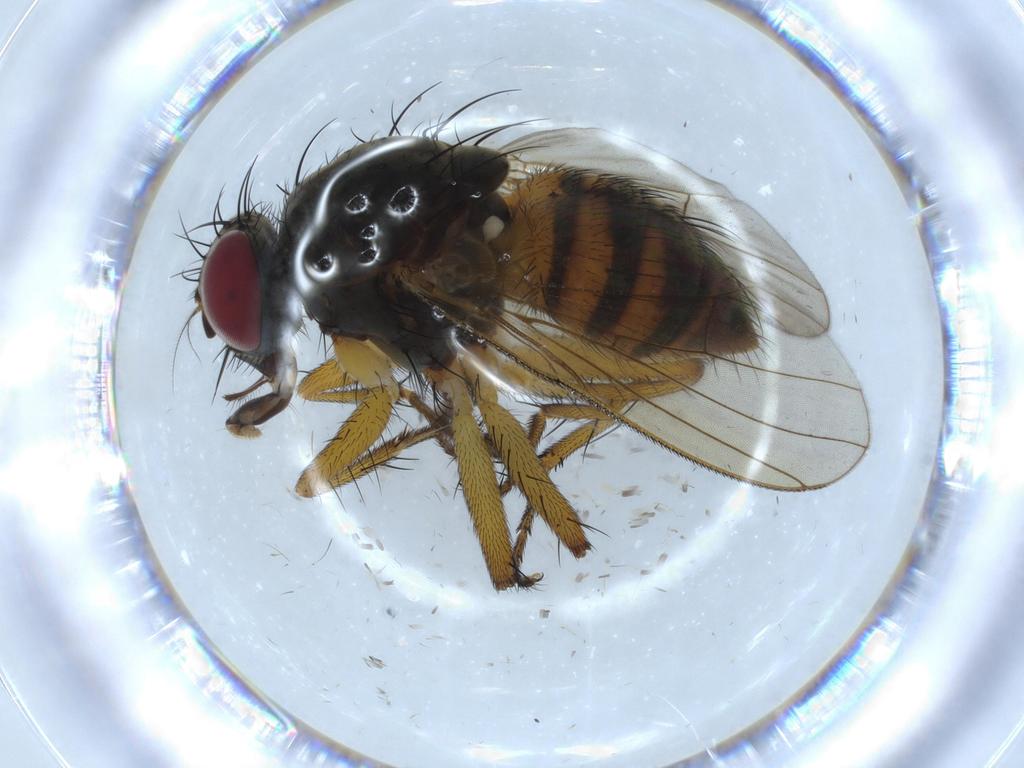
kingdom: Animalia
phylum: Arthropoda
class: Insecta
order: Diptera
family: Muscidae
